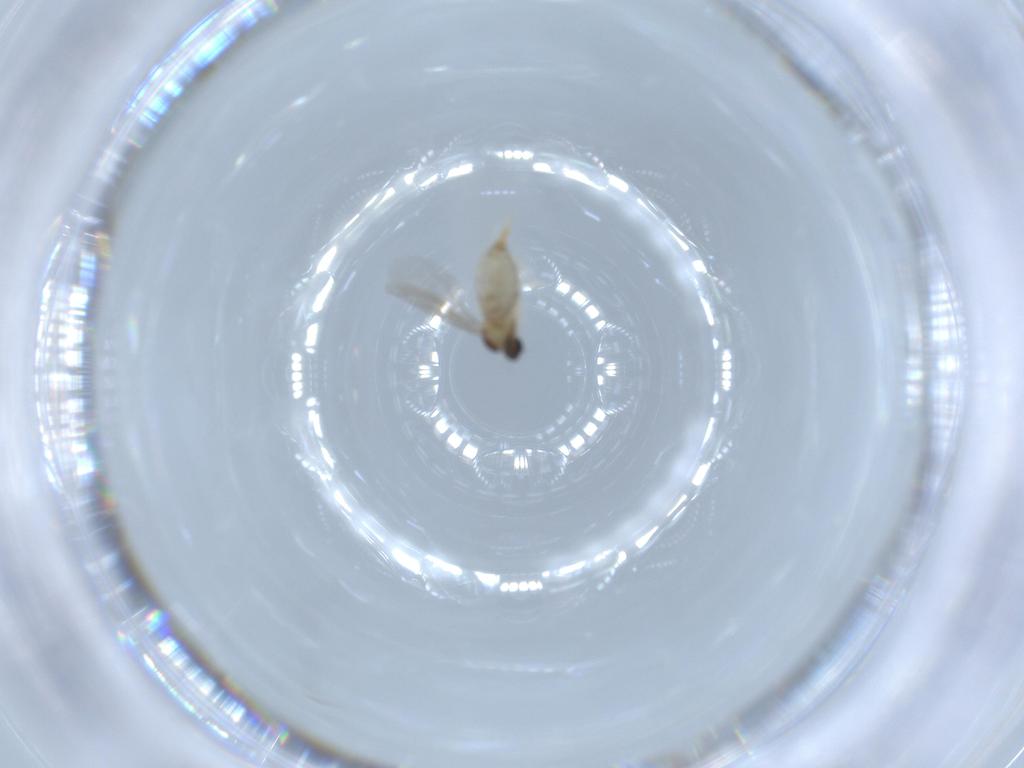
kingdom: Animalia
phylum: Arthropoda
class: Insecta
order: Diptera
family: Cecidomyiidae
